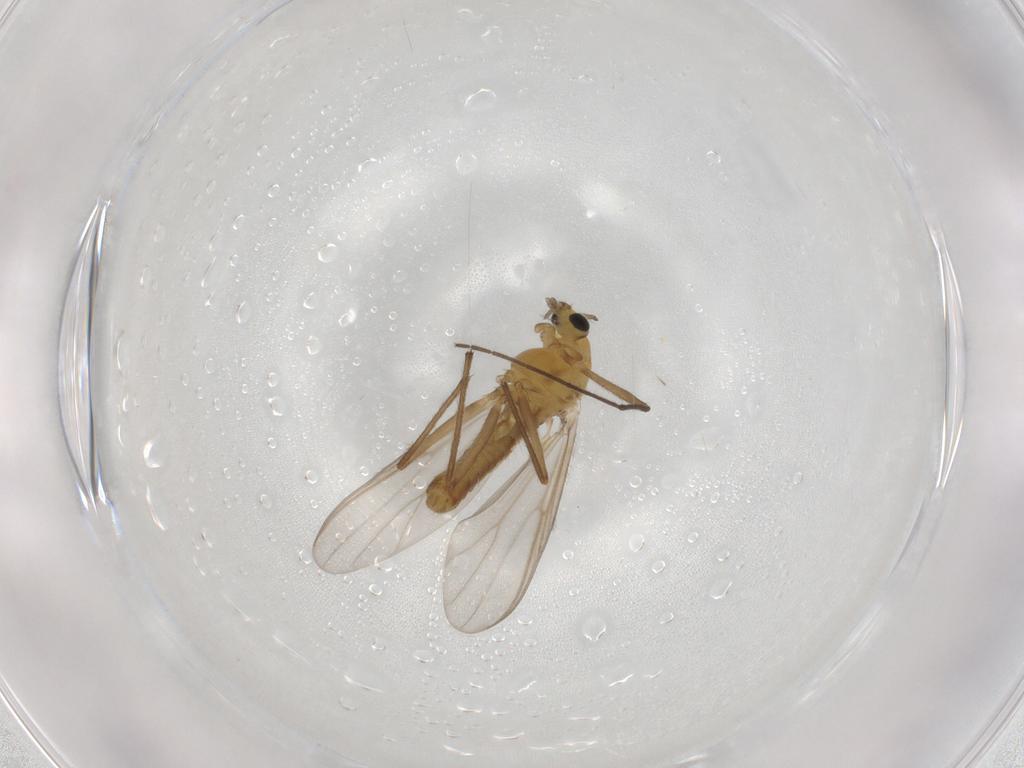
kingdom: Animalia
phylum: Arthropoda
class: Insecta
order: Diptera
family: Chironomidae
